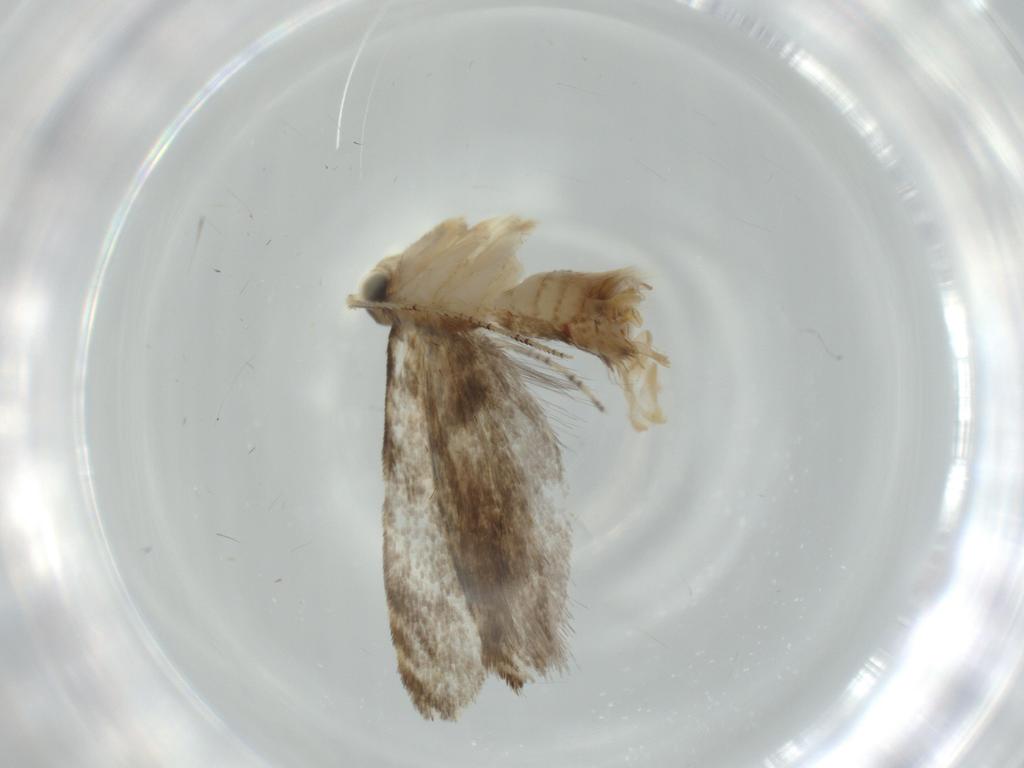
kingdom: Animalia
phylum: Arthropoda
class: Insecta
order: Lepidoptera
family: Tineidae
